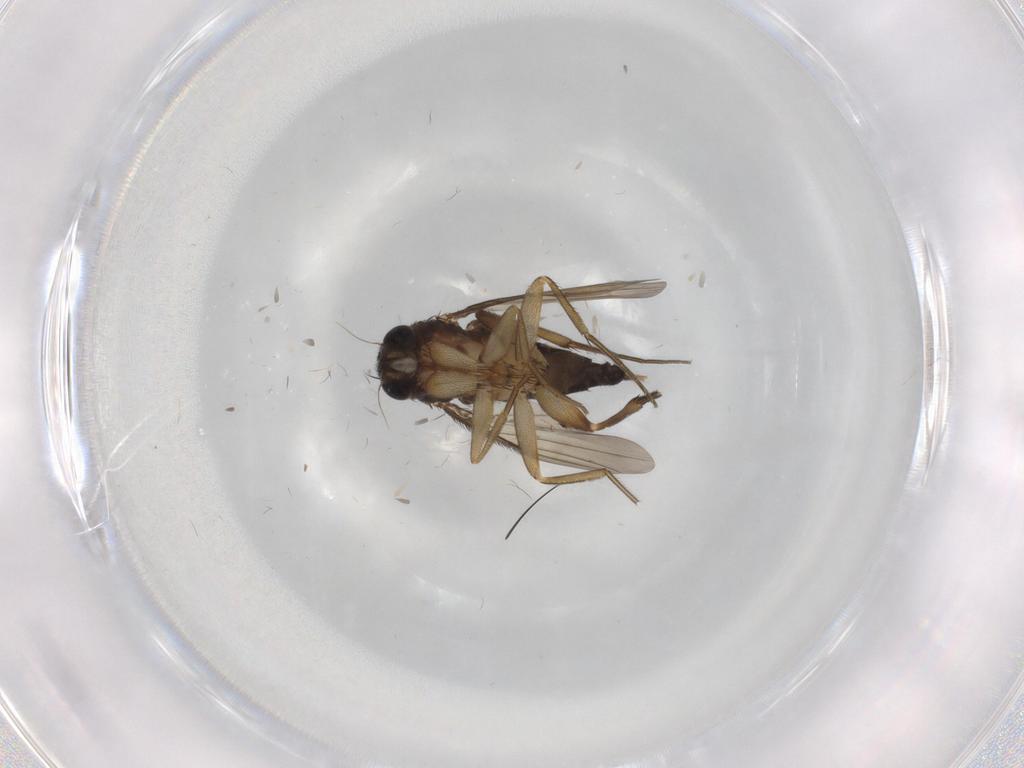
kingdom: Animalia
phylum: Arthropoda
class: Insecta
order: Diptera
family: Phoridae
